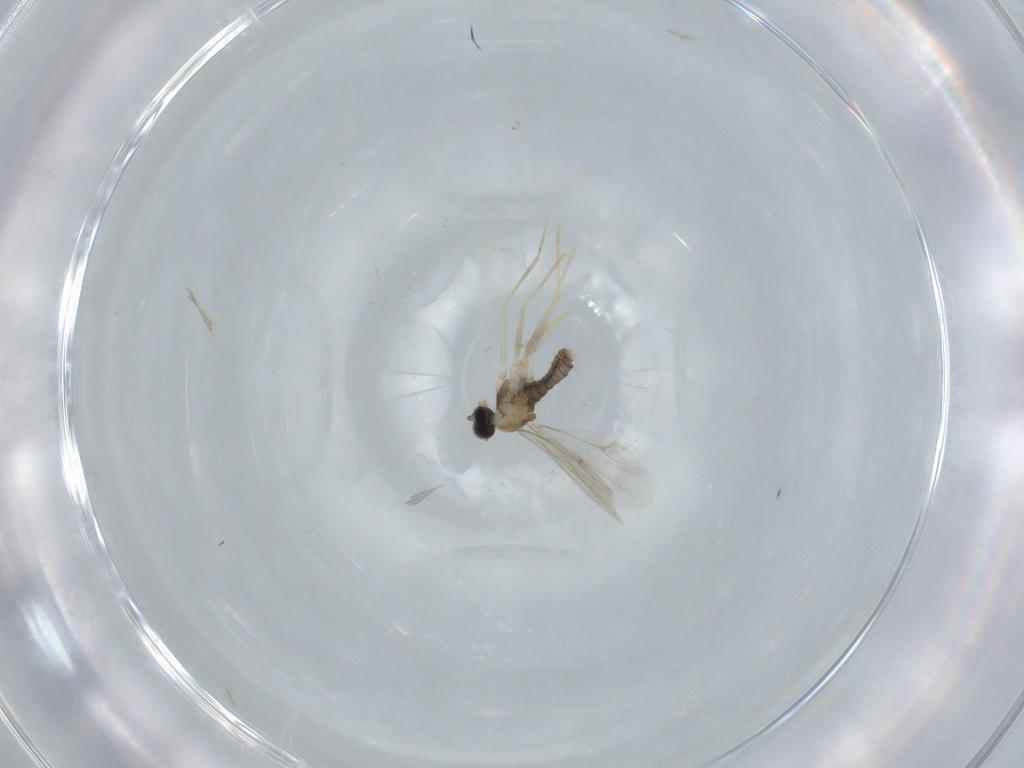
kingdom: Animalia
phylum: Arthropoda
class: Insecta
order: Diptera
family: Cecidomyiidae
